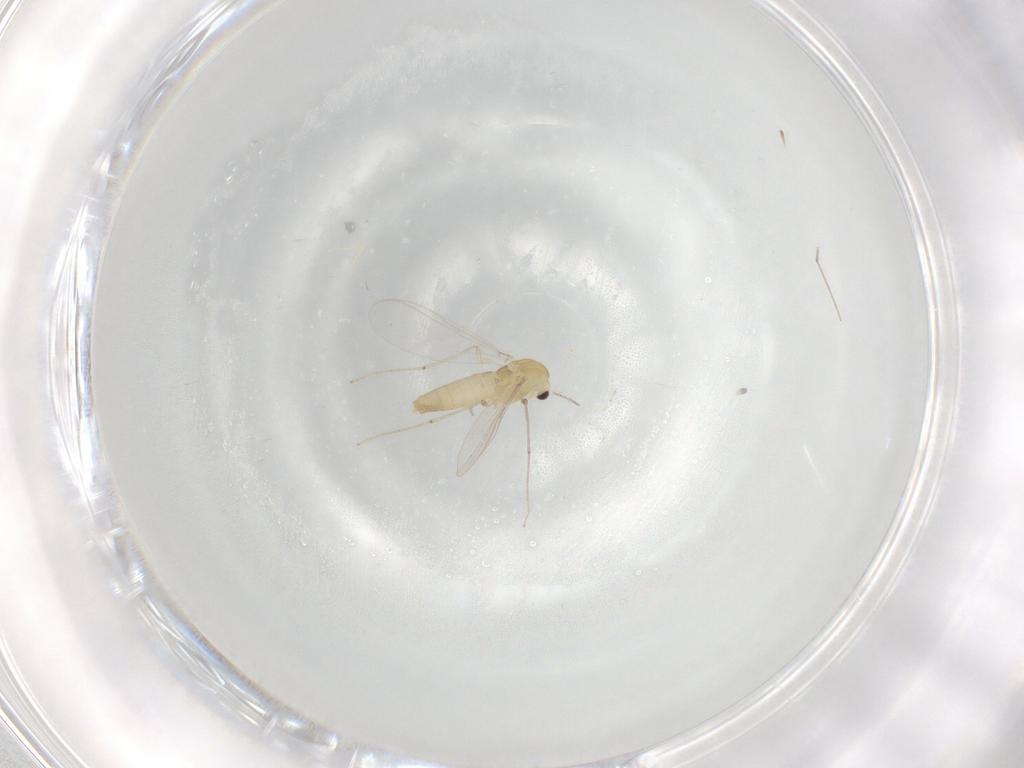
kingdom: Animalia
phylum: Arthropoda
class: Insecta
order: Diptera
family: Chironomidae
